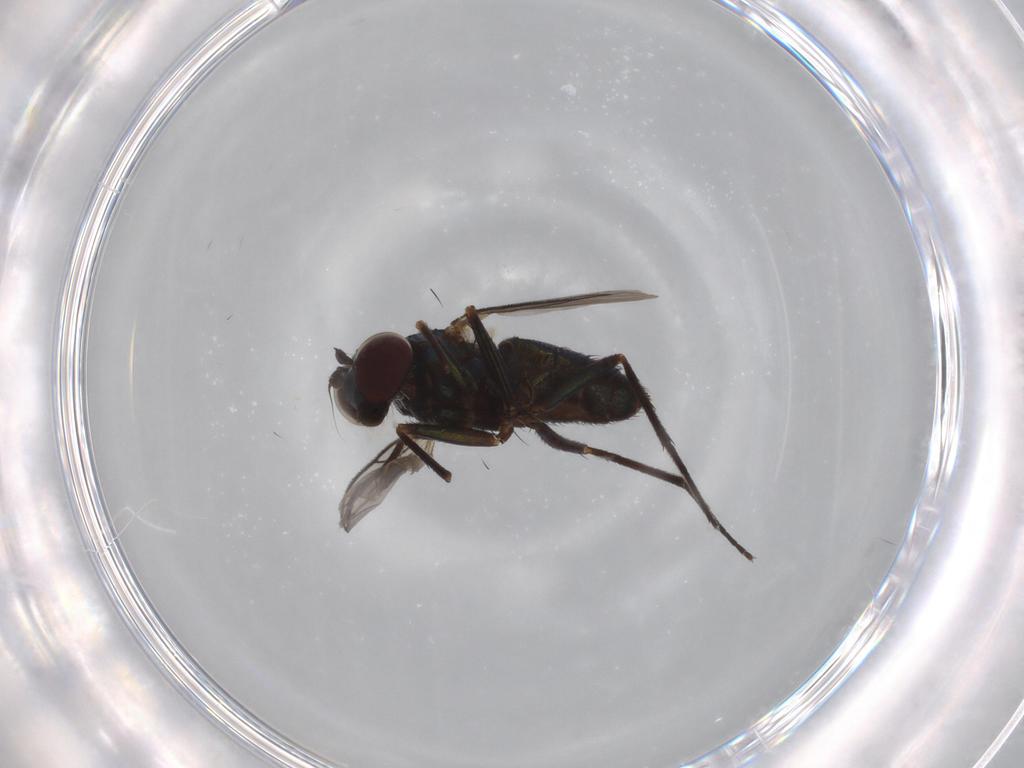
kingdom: Animalia
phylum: Arthropoda
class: Insecta
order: Diptera
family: Dolichopodidae
